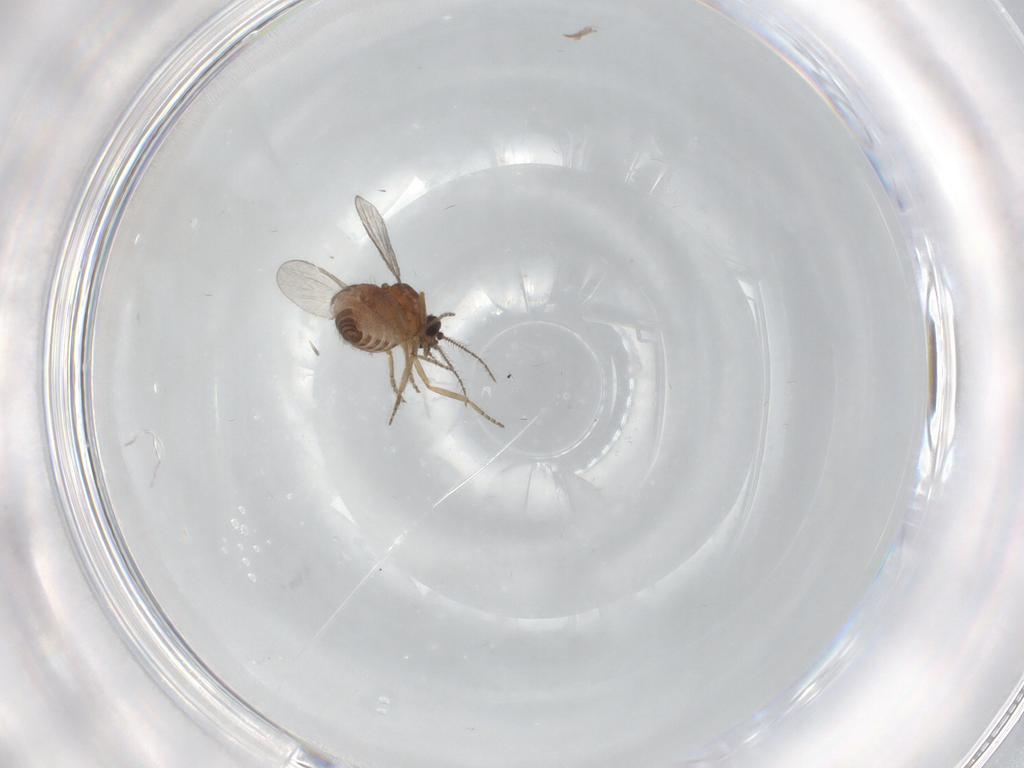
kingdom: Animalia
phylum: Arthropoda
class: Insecta
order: Diptera
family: Ceratopogonidae
